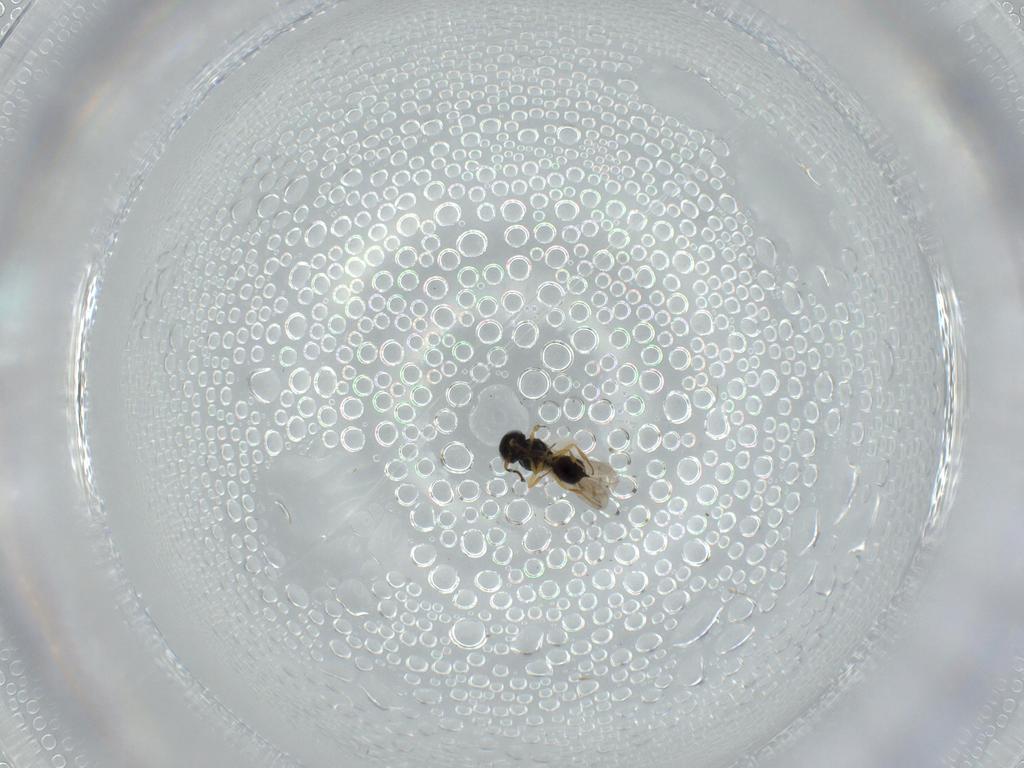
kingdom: Animalia
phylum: Arthropoda
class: Insecta
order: Hymenoptera
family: Scelionidae
